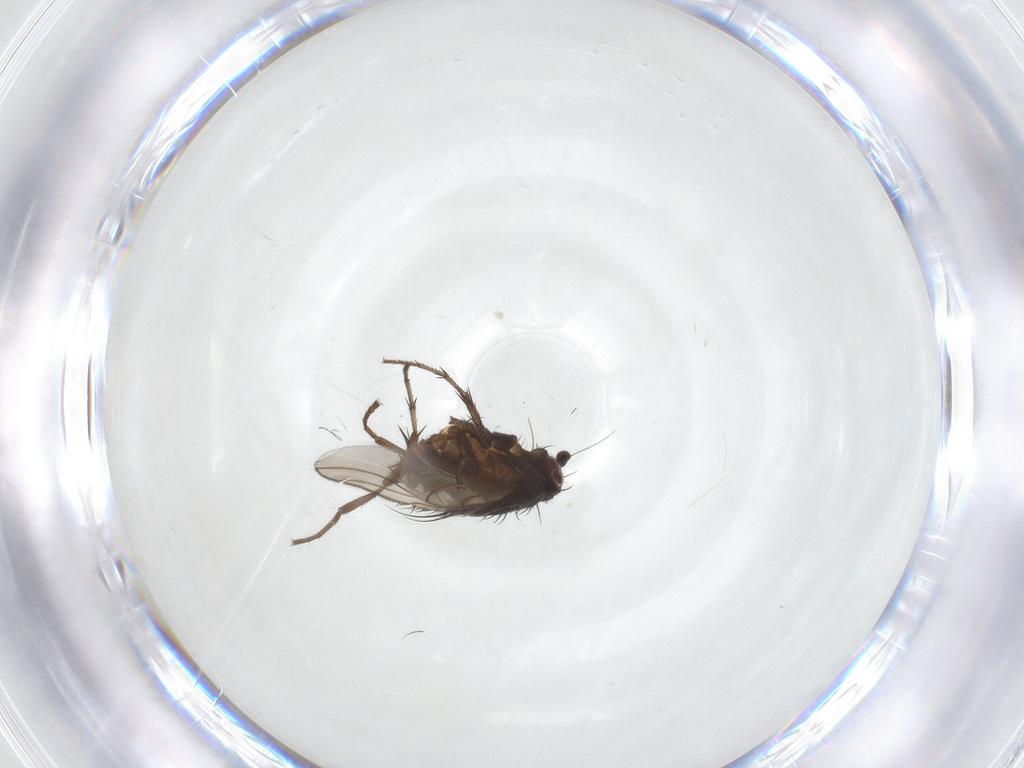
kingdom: Animalia
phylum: Arthropoda
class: Insecta
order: Diptera
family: Sphaeroceridae
